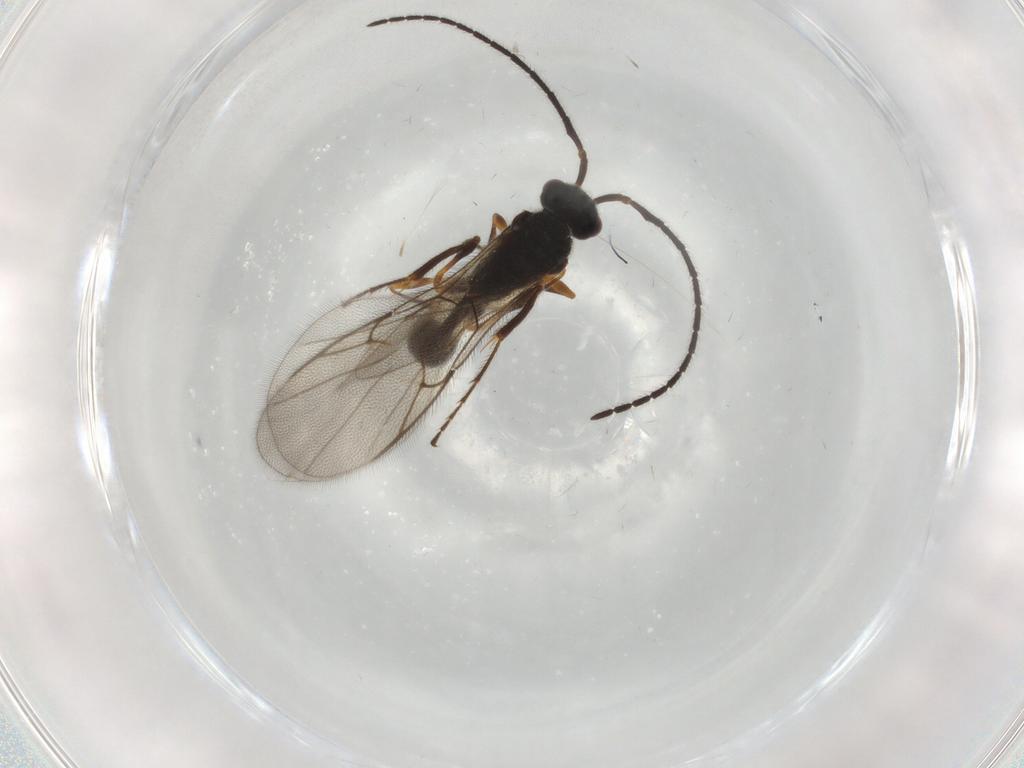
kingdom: Animalia
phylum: Arthropoda
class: Insecta
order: Hymenoptera
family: Diapriidae
